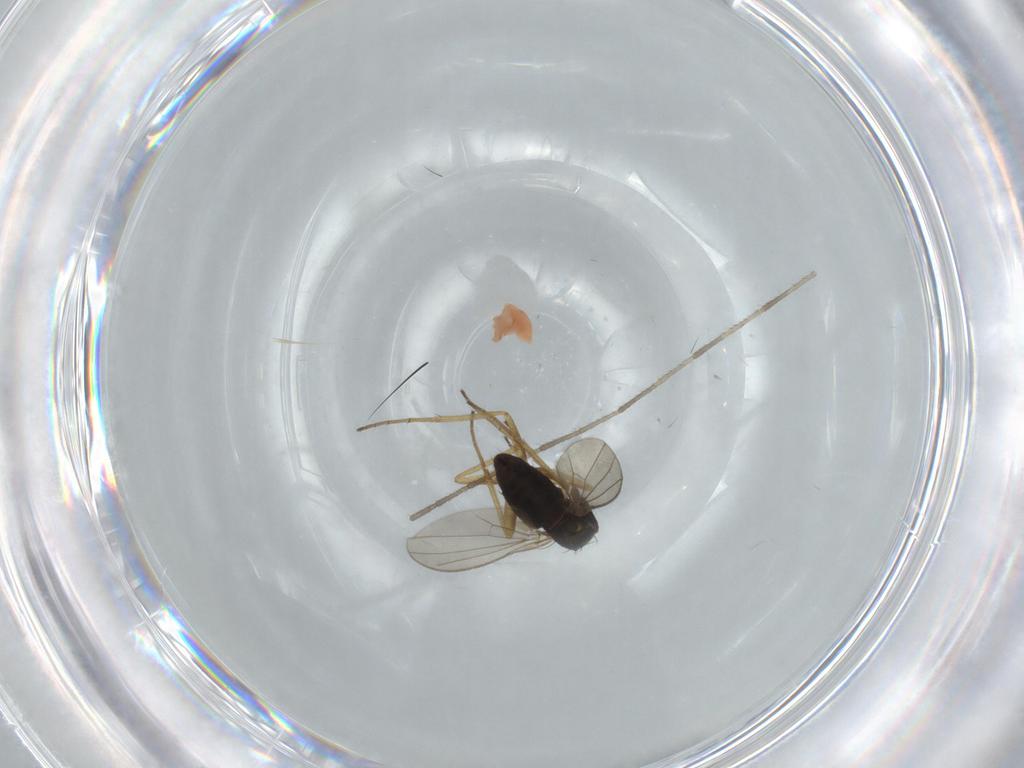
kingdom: Animalia
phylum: Arthropoda
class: Insecta
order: Diptera
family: Dolichopodidae
